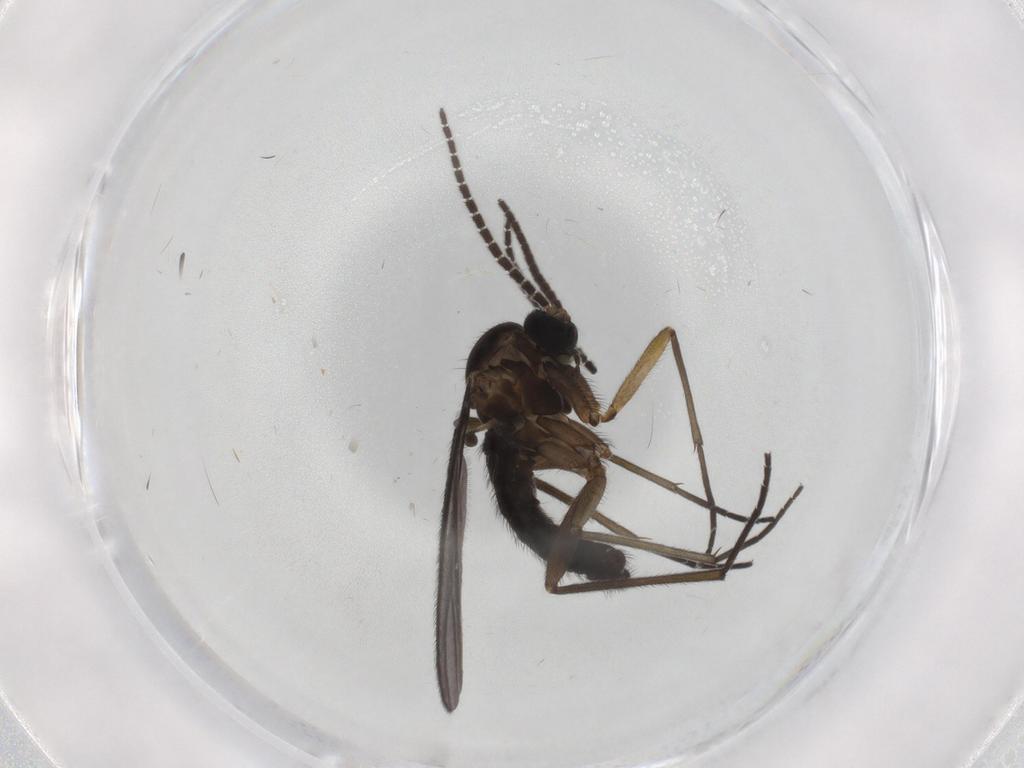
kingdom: Animalia
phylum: Arthropoda
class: Insecta
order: Diptera
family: Sciaridae
